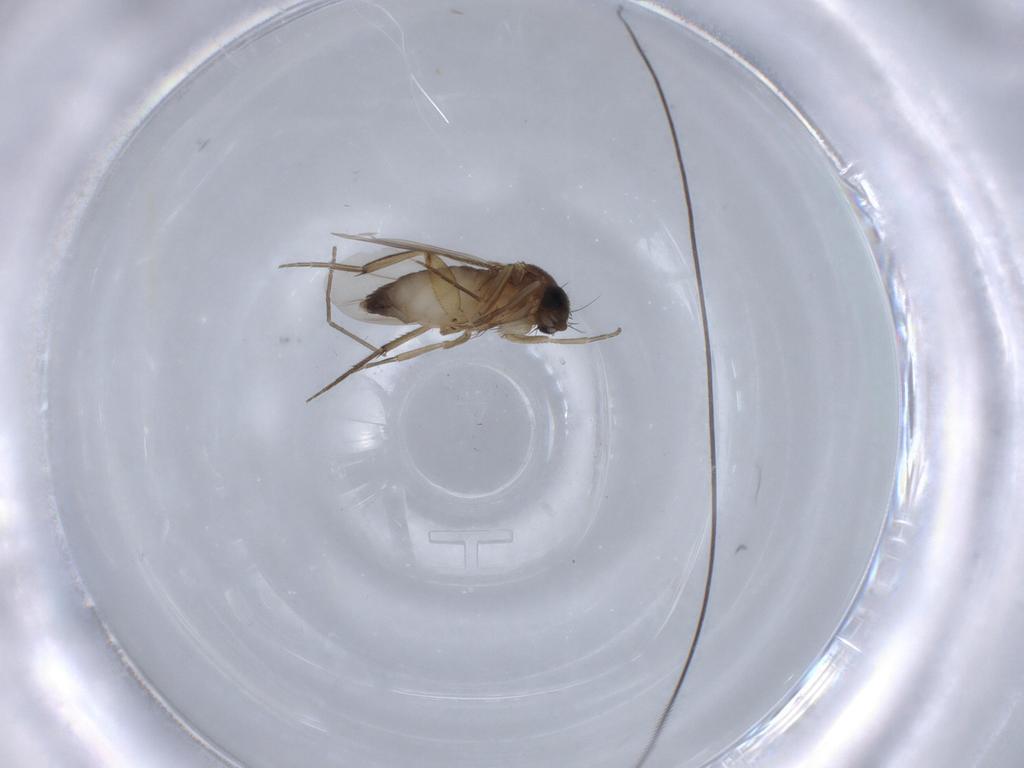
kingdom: Animalia
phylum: Arthropoda
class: Insecta
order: Diptera
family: Phoridae
